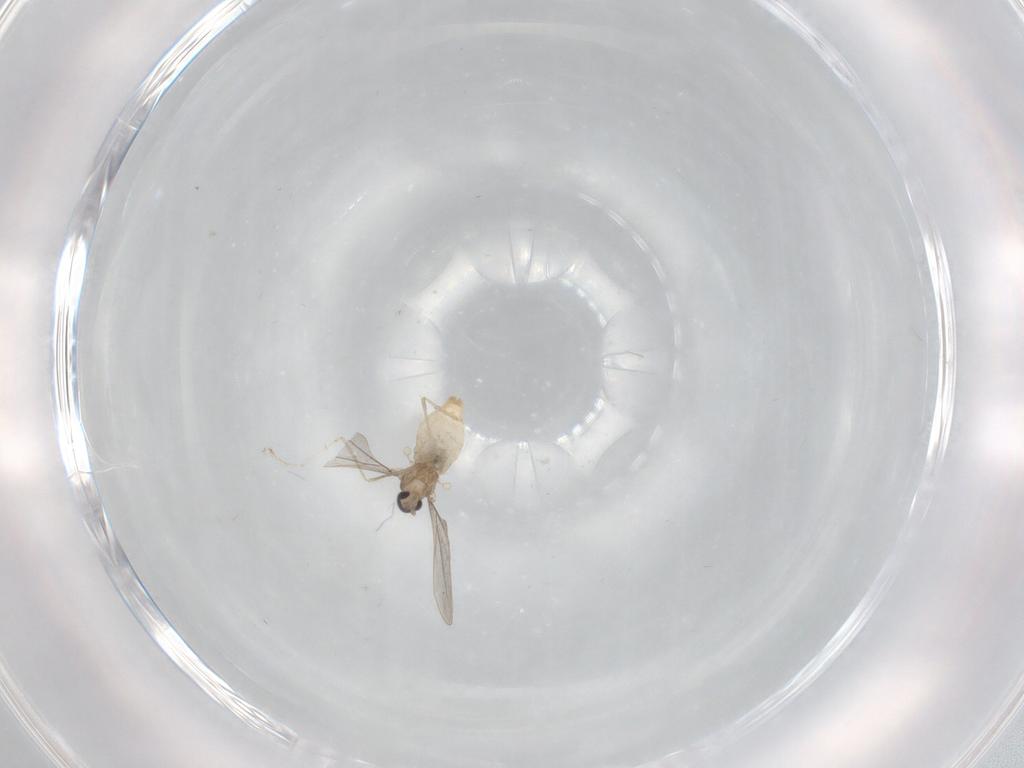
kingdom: Animalia
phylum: Arthropoda
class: Insecta
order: Diptera
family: Cecidomyiidae
